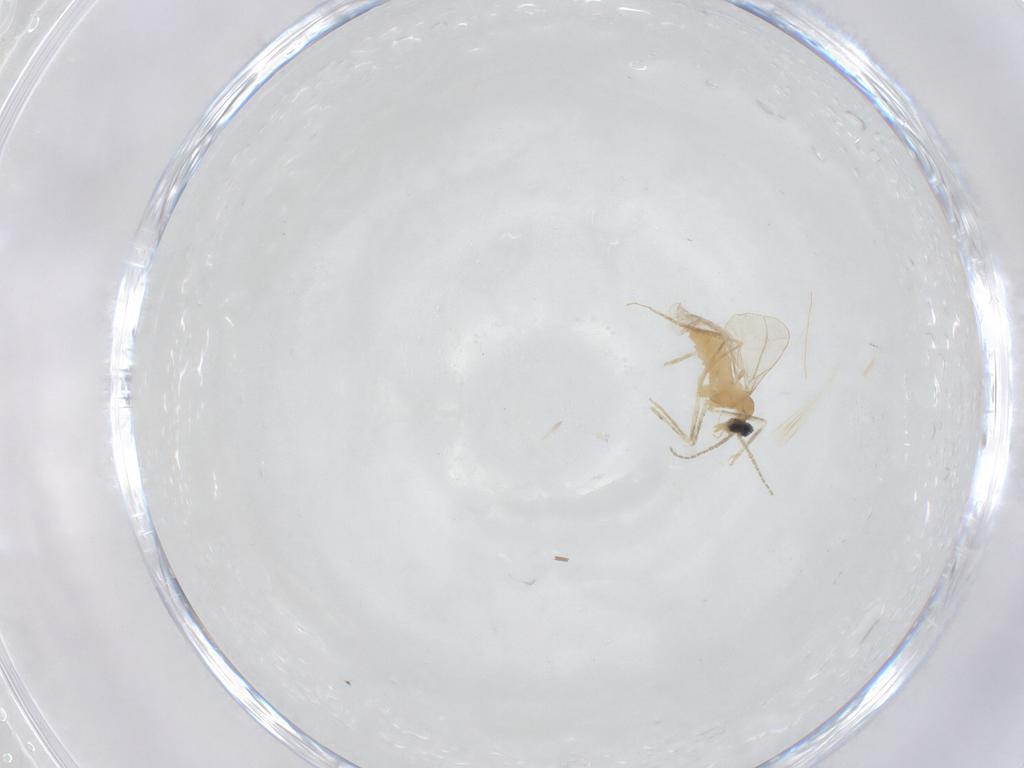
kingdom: Animalia
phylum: Arthropoda
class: Insecta
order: Diptera
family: Cecidomyiidae
